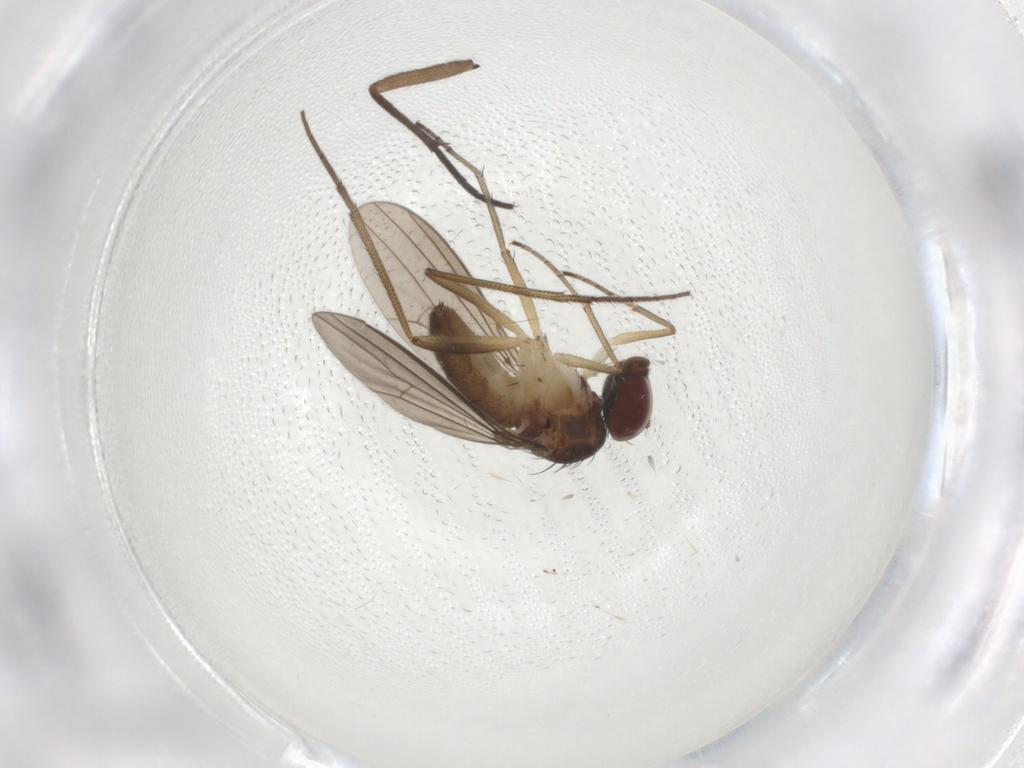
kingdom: Animalia
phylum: Arthropoda
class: Insecta
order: Diptera
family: Dolichopodidae
